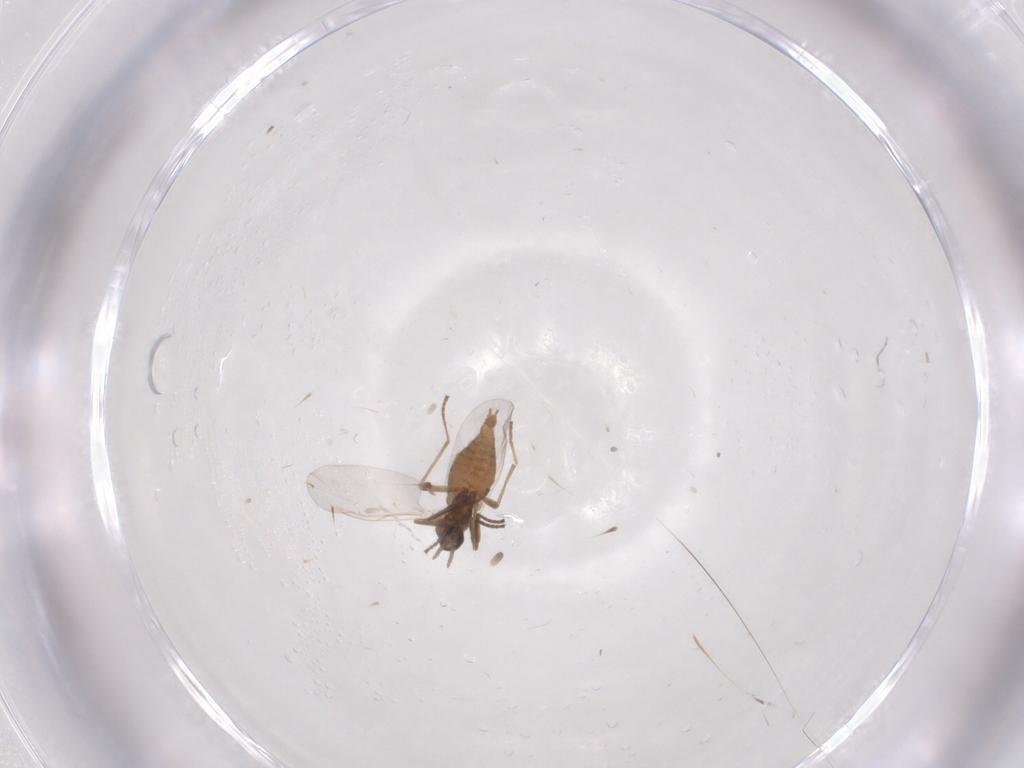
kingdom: Animalia
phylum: Arthropoda
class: Insecta
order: Diptera
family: Cecidomyiidae
